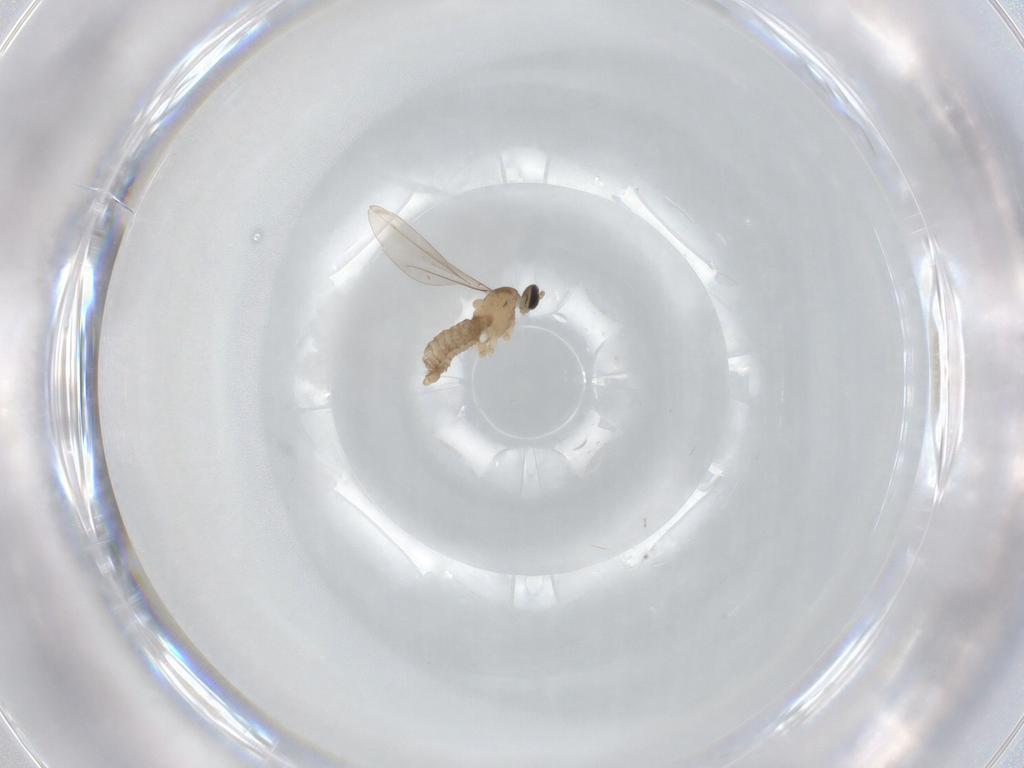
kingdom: Animalia
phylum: Arthropoda
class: Insecta
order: Diptera
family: Cecidomyiidae
